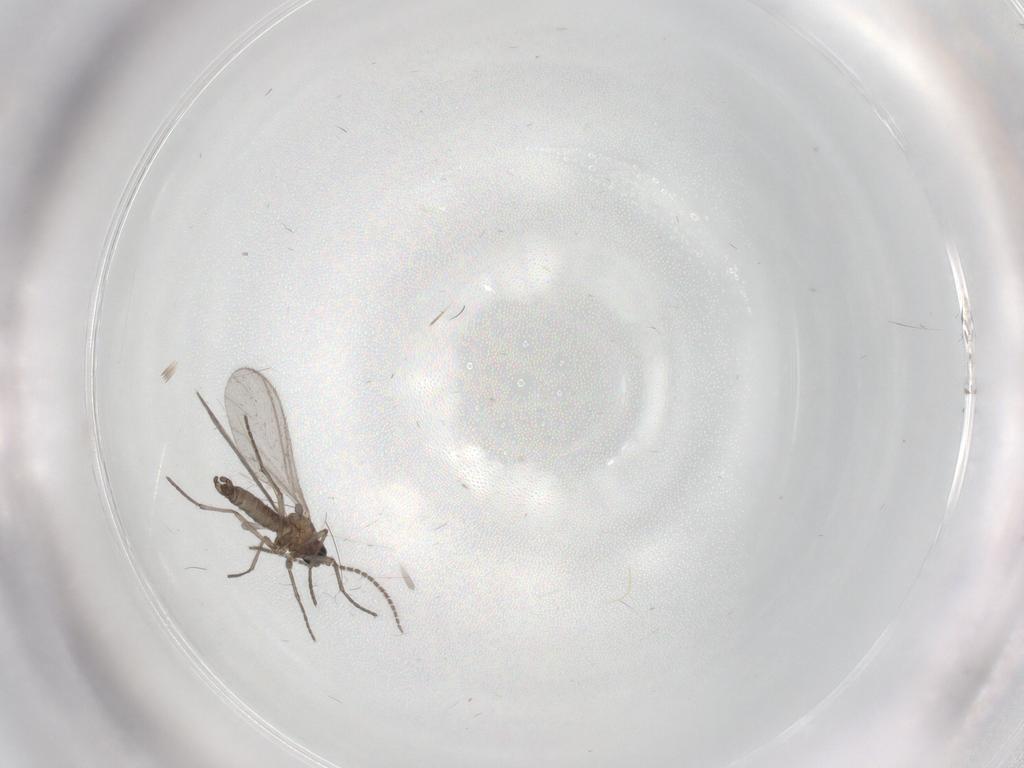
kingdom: Animalia
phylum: Arthropoda
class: Insecta
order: Diptera
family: Sciaridae
